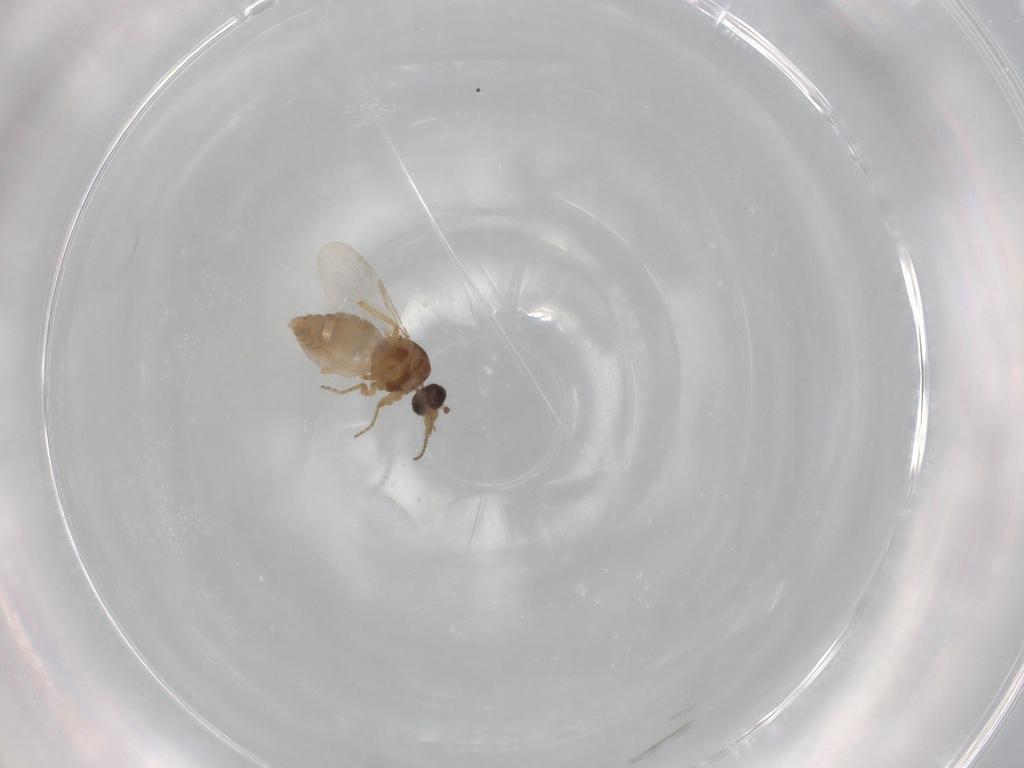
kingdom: Animalia
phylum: Arthropoda
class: Insecta
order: Diptera
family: Ceratopogonidae
